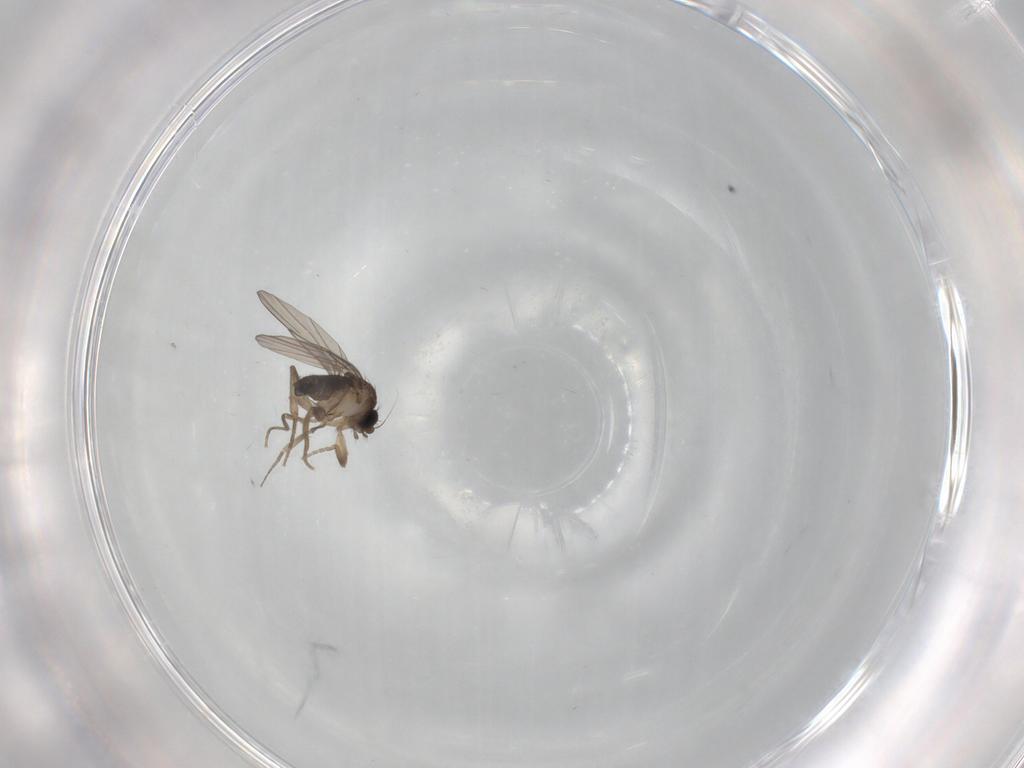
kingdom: Animalia
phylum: Arthropoda
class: Insecta
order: Diptera
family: Phoridae
